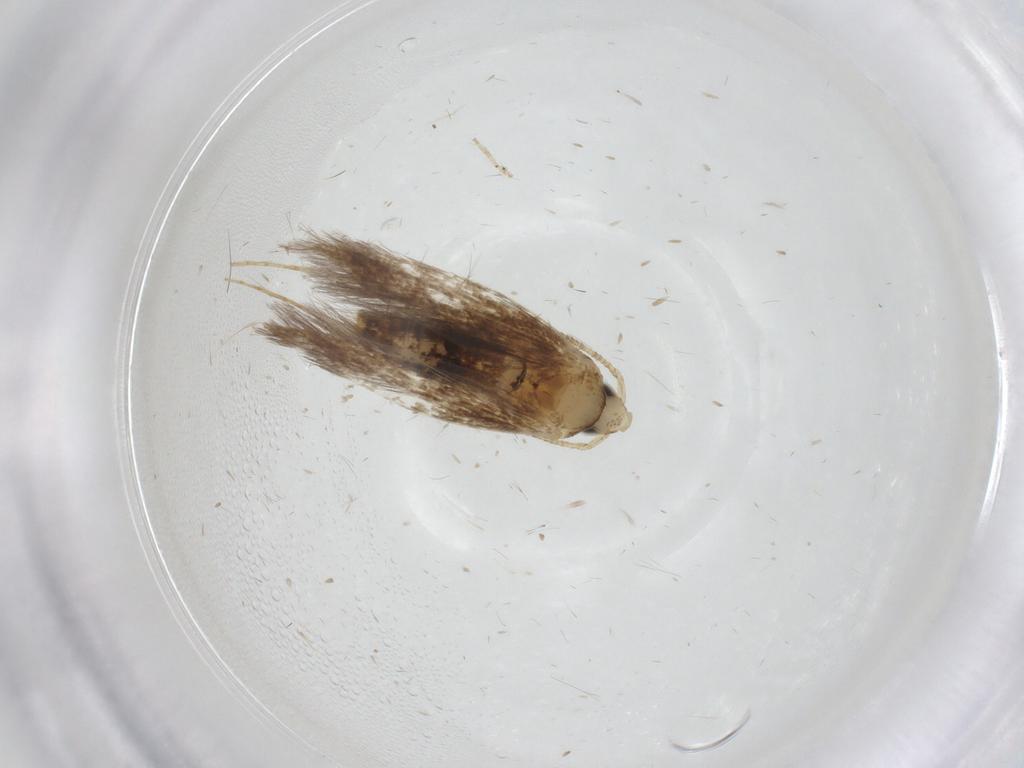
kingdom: Animalia
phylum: Arthropoda
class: Insecta
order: Lepidoptera
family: Psychidae
